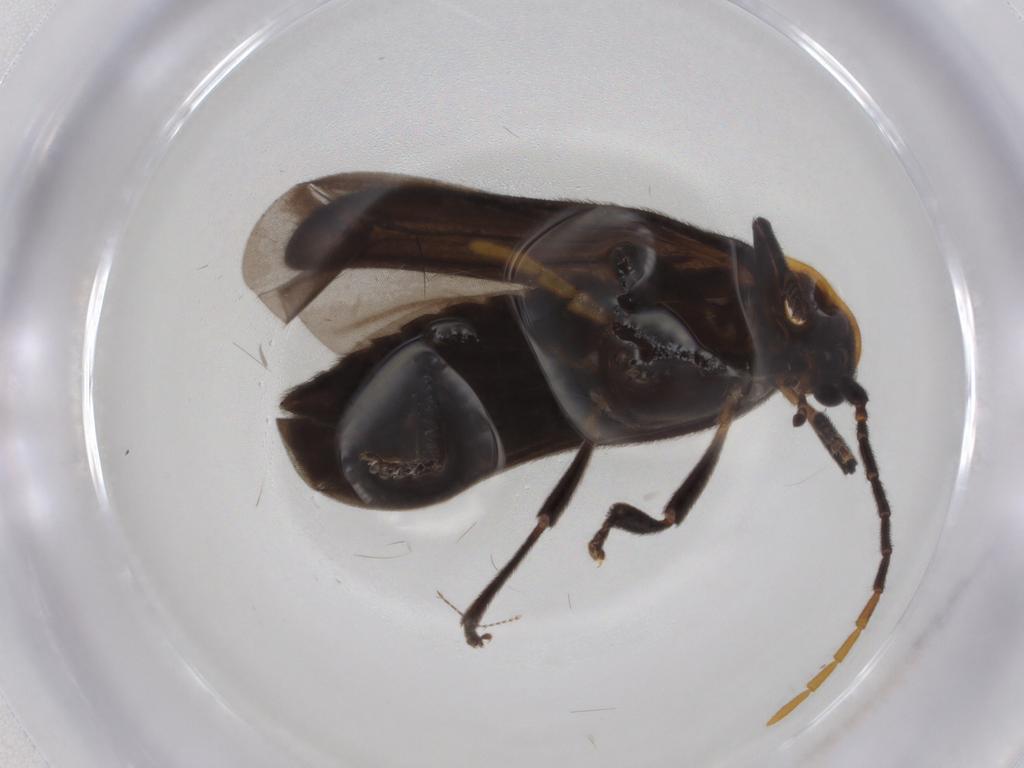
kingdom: Animalia
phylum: Arthropoda
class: Insecta
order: Coleoptera
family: Lycidae
